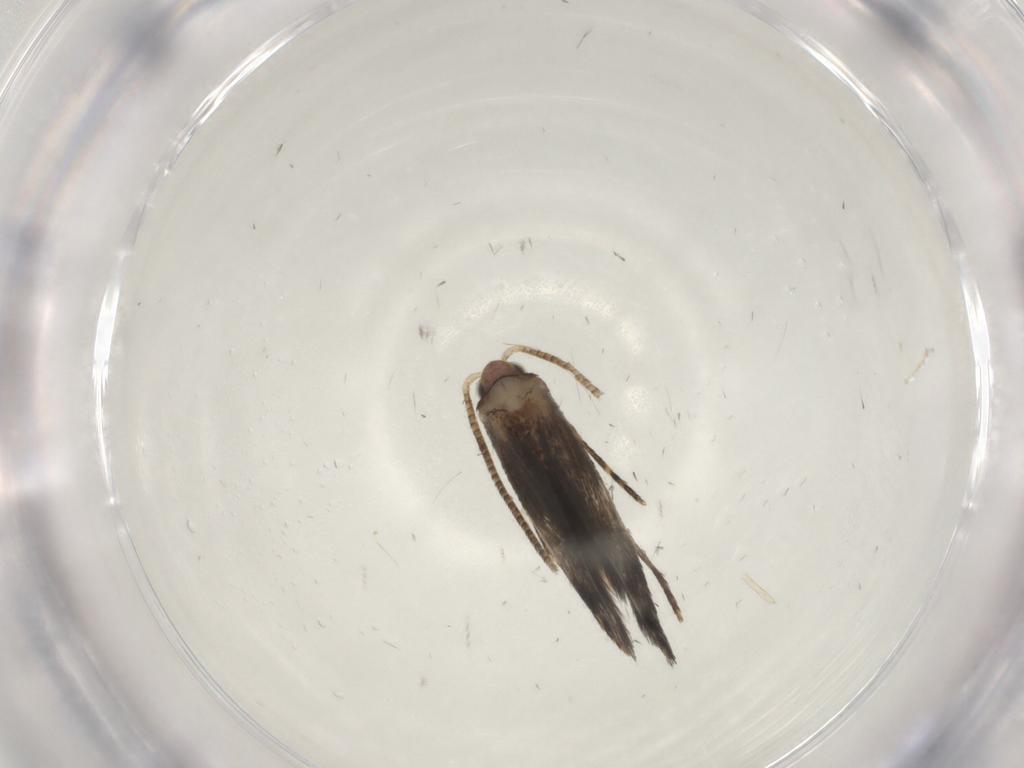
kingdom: Animalia
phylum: Arthropoda
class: Insecta
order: Lepidoptera
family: Tineidae
